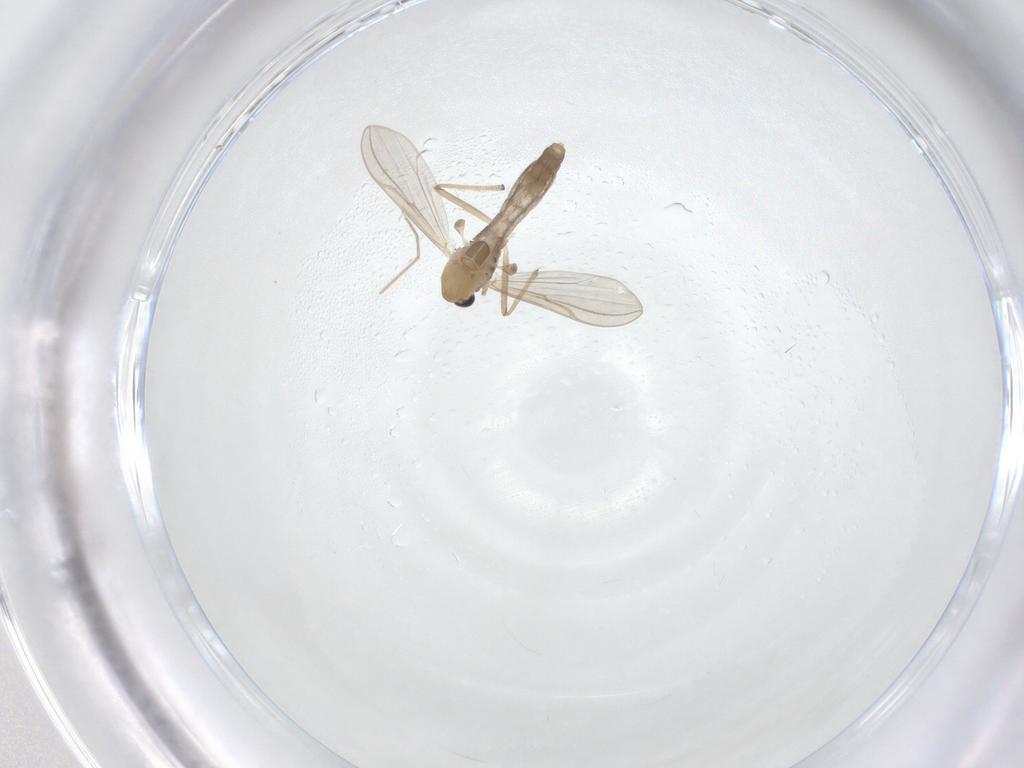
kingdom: Animalia
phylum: Arthropoda
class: Insecta
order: Diptera
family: Chironomidae
